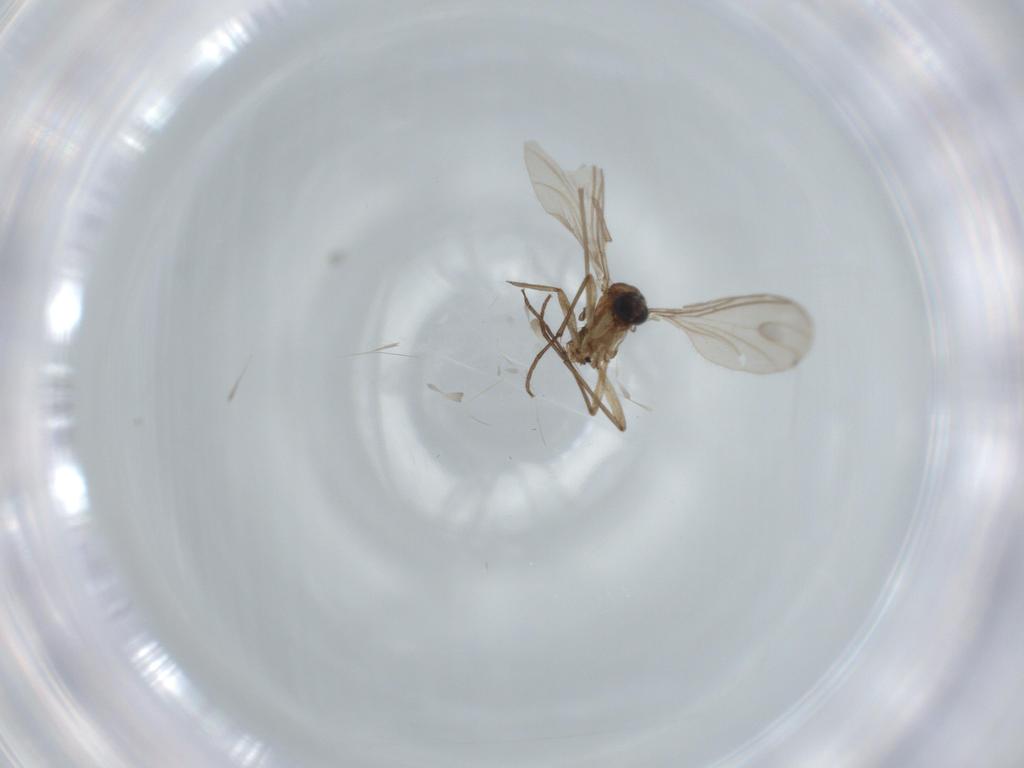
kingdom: Animalia
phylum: Arthropoda
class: Insecta
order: Diptera
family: Sciaridae
